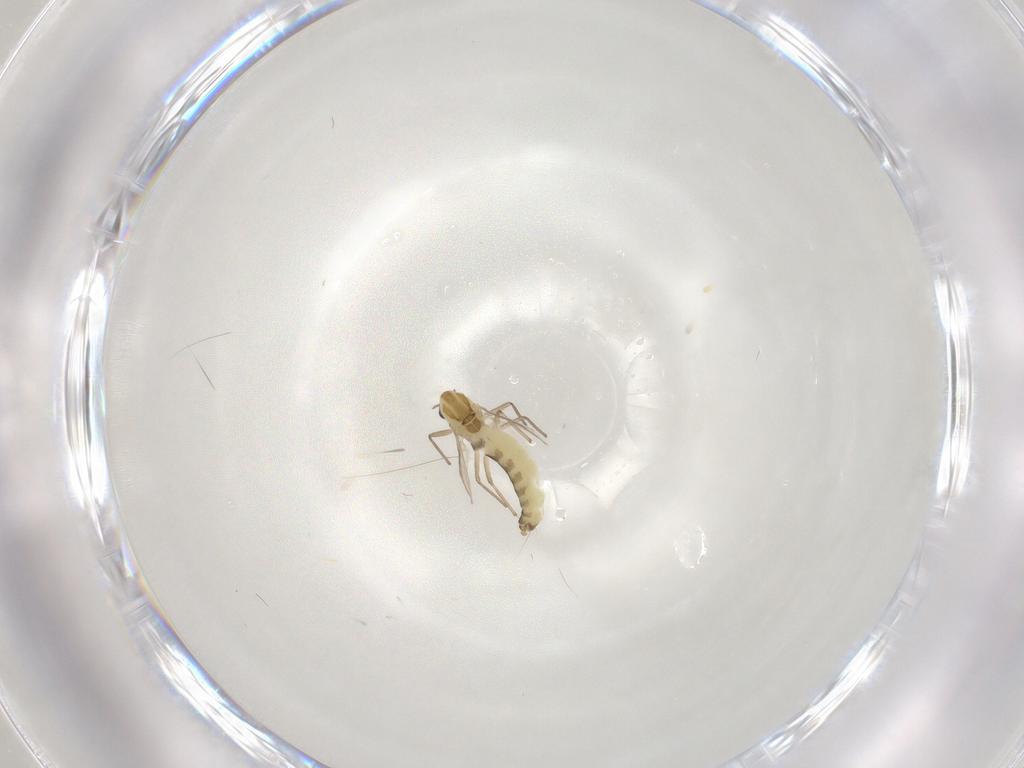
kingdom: Animalia
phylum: Arthropoda
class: Insecta
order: Diptera
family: Chironomidae
